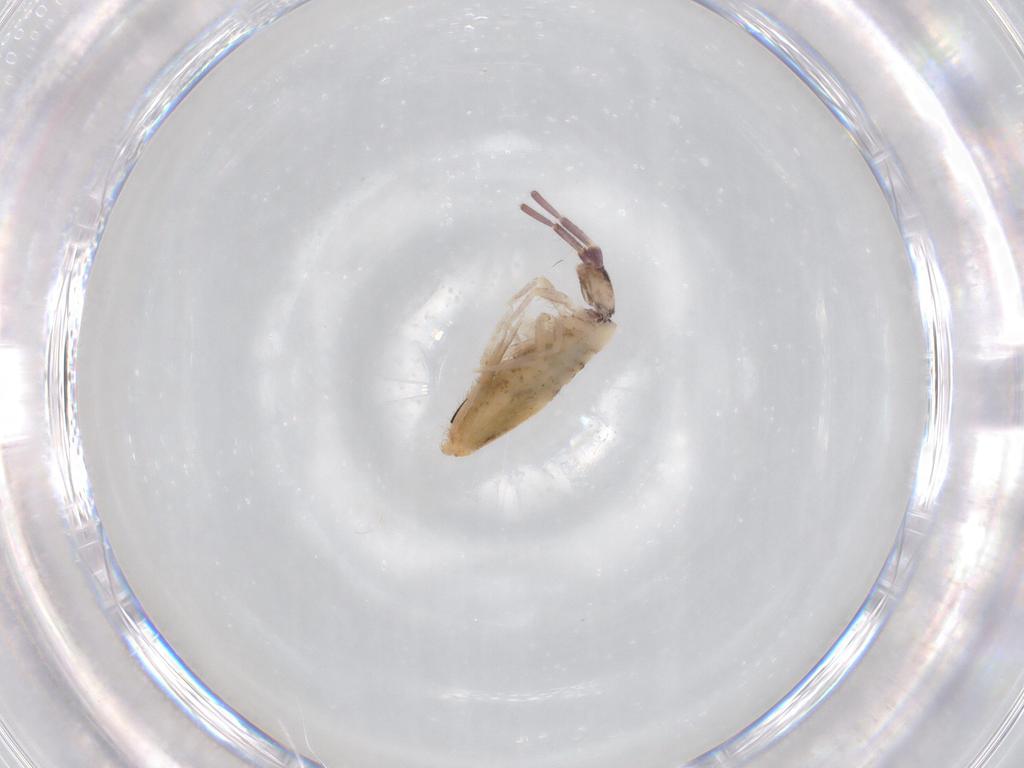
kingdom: Animalia
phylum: Arthropoda
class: Collembola
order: Entomobryomorpha
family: Entomobryidae
